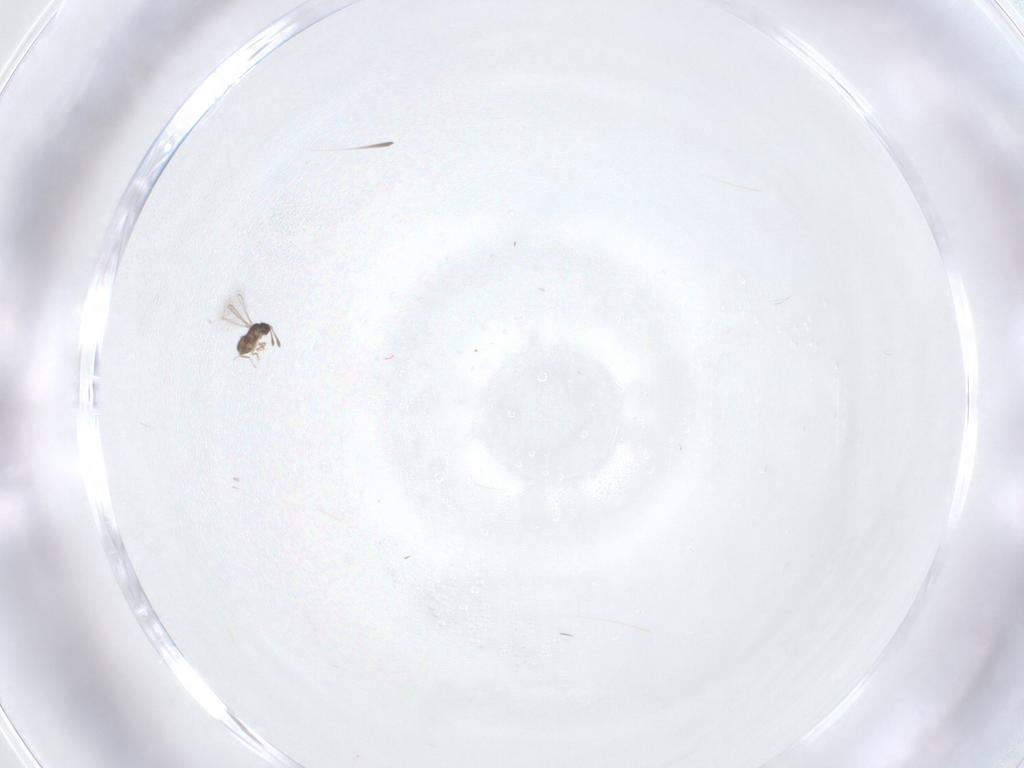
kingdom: Animalia
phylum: Arthropoda
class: Insecta
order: Hymenoptera
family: Mymaridae
